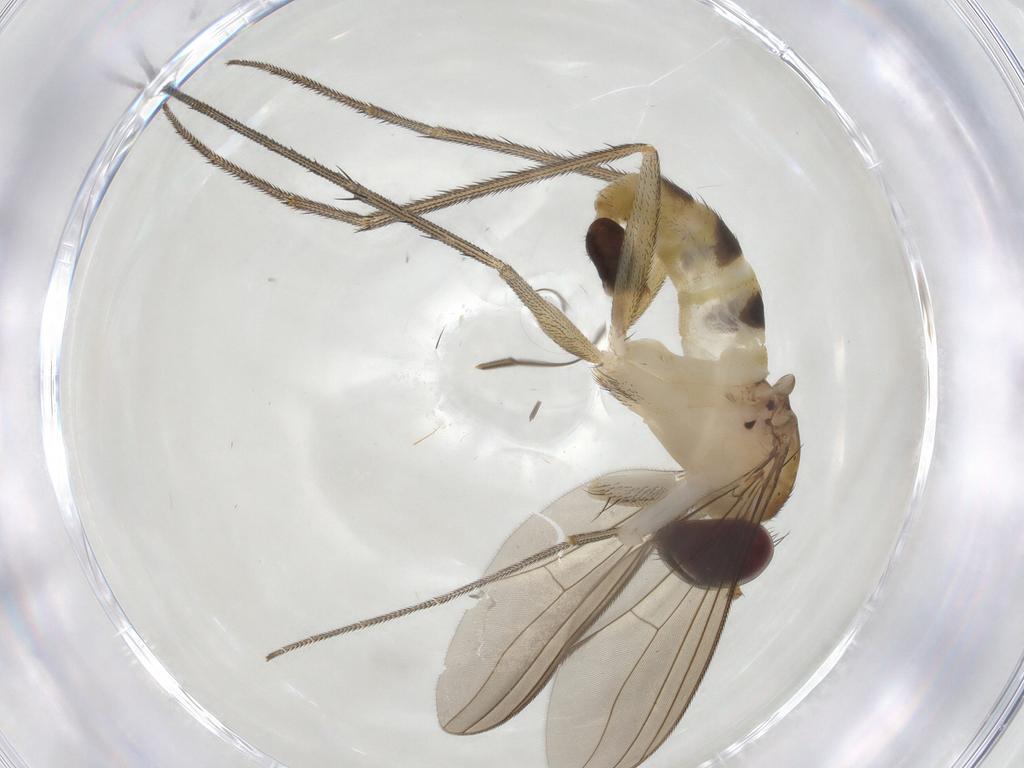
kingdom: Animalia
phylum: Arthropoda
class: Insecta
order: Diptera
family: Dolichopodidae
